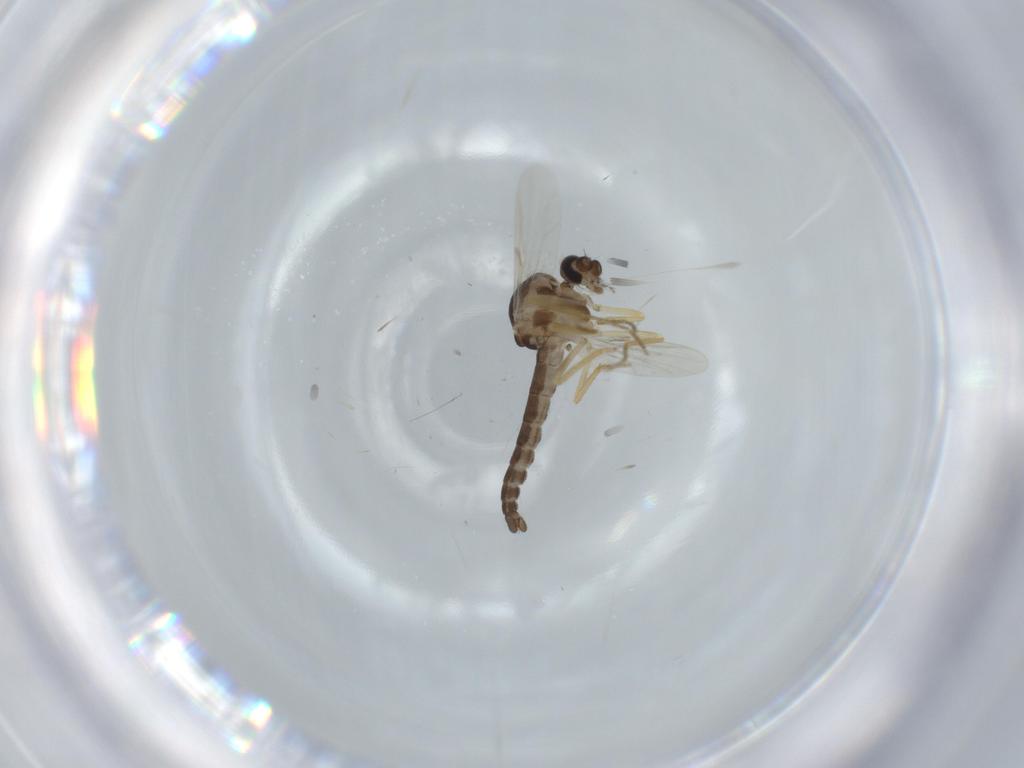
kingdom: Animalia
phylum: Arthropoda
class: Insecta
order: Diptera
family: Ceratopogonidae
